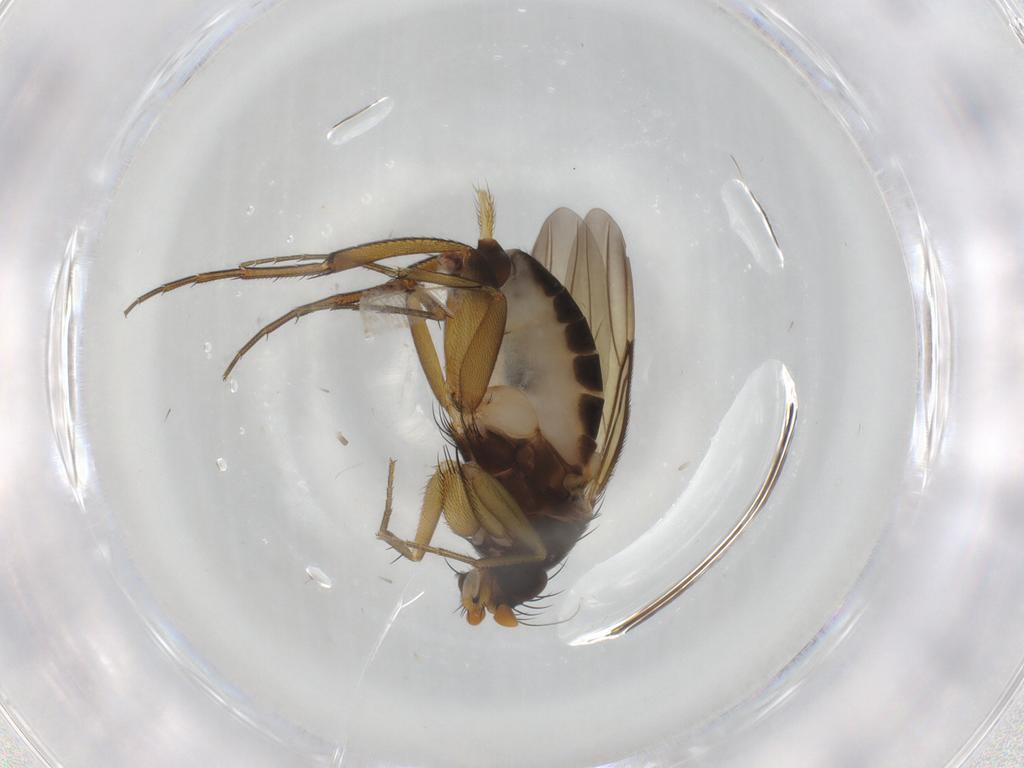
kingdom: Animalia
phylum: Arthropoda
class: Insecta
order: Diptera
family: Phoridae
